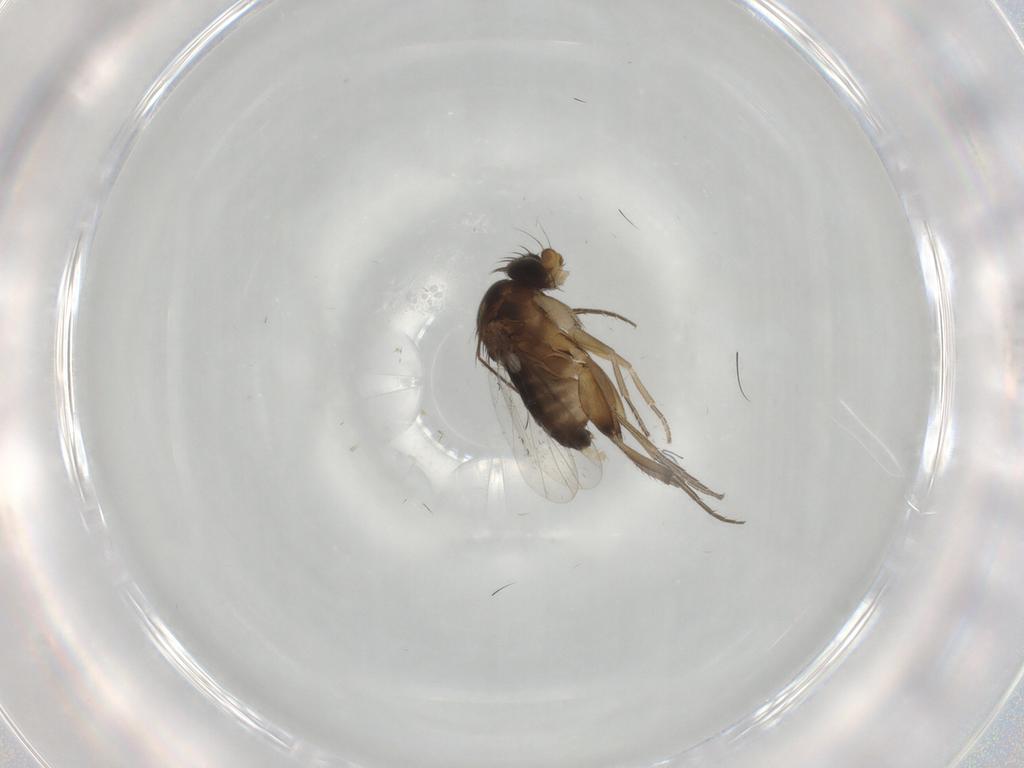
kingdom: Animalia
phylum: Arthropoda
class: Insecta
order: Diptera
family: Phoridae
